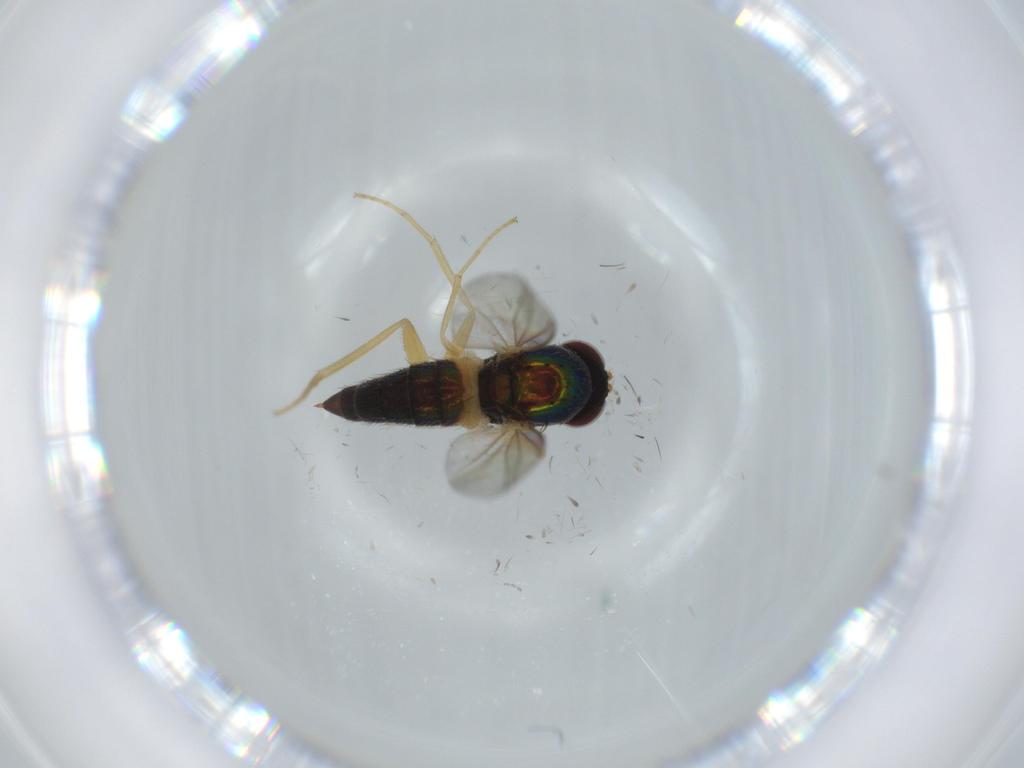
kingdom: Animalia
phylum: Arthropoda
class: Insecta
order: Diptera
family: Dolichopodidae
